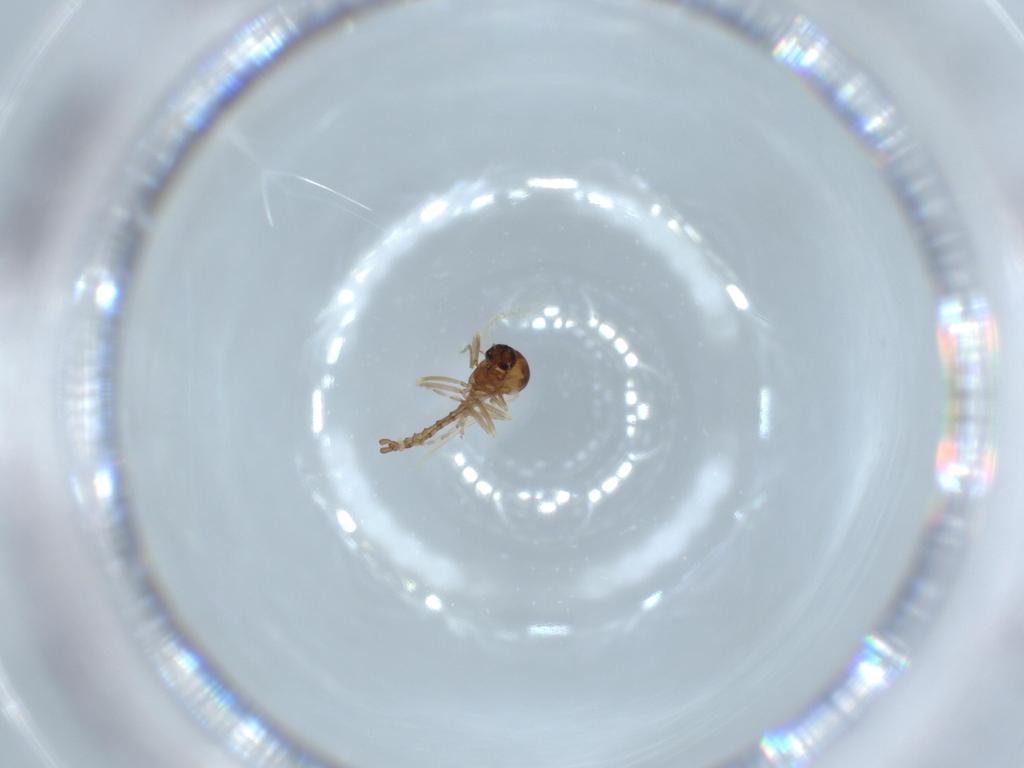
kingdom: Animalia
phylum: Arthropoda
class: Insecta
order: Diptera
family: Ceratopogonidae
